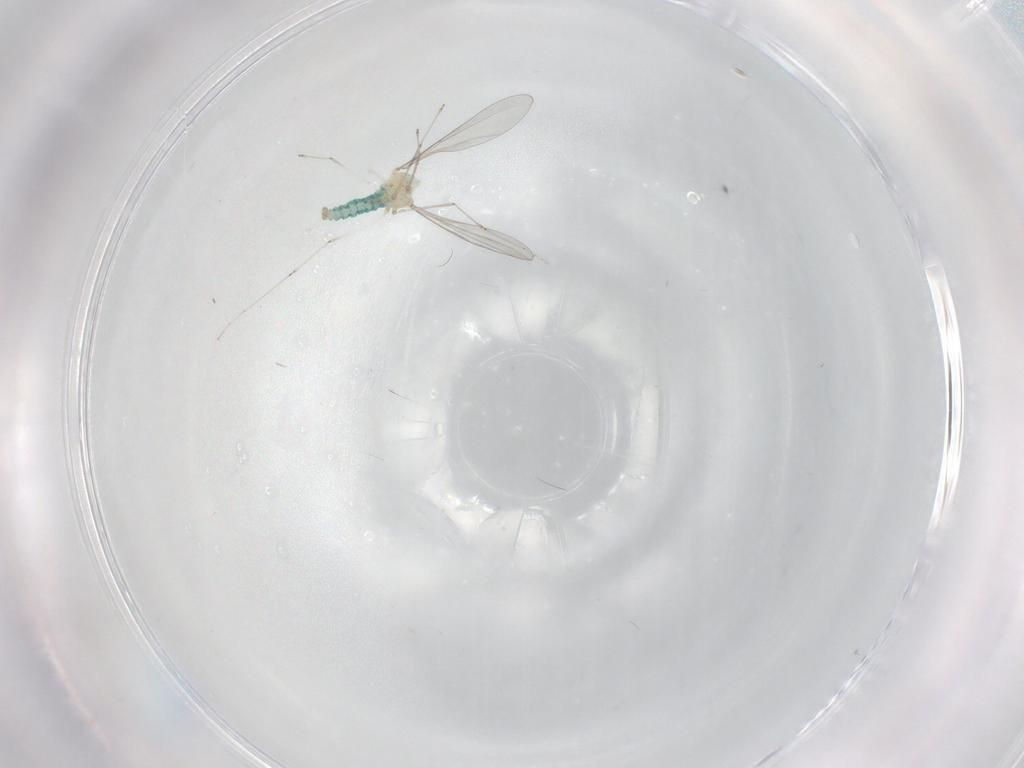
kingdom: Animalia
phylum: Arthropoda
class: Insecta
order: Diptera
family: Cecidomyiidae
